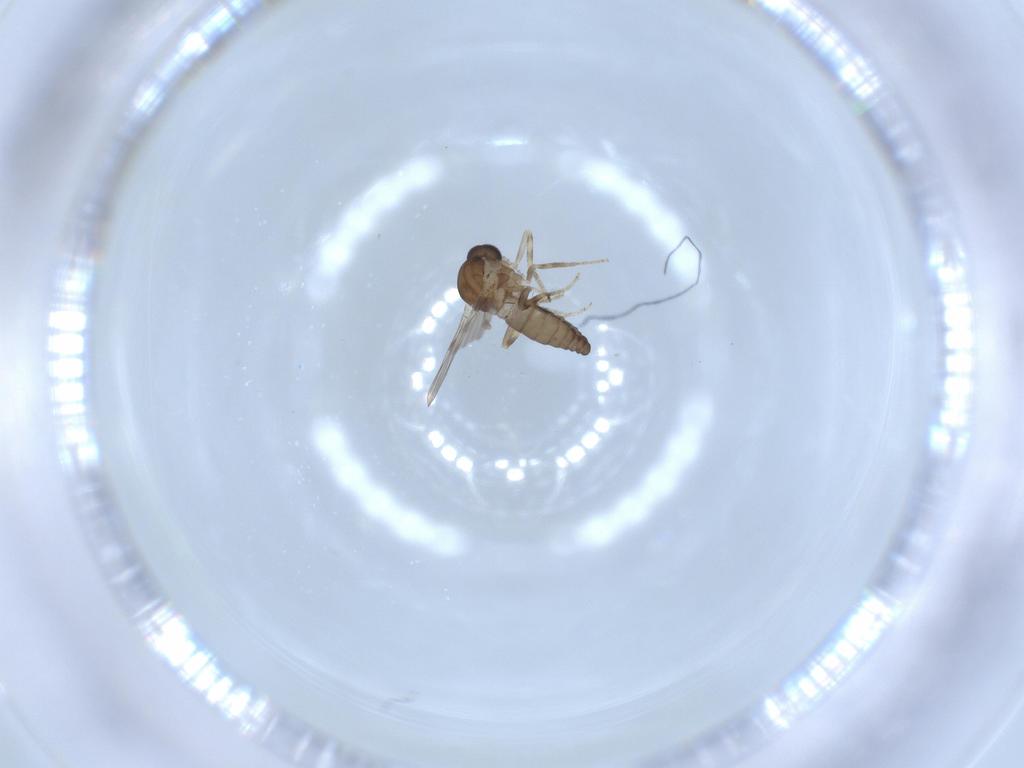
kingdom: Animalia
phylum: Arthropoda
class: Insecta
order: Diptera
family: Ceratopogonidae
